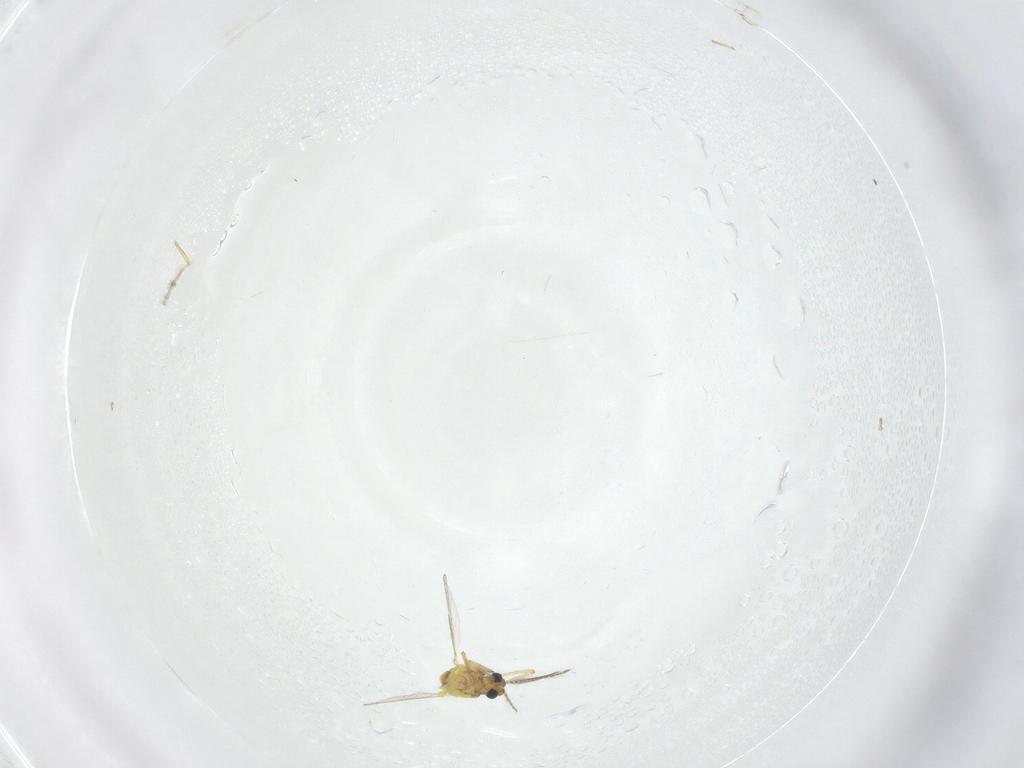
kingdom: Animalia
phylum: Arthropoda
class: Insecta
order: Diptera
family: Ceratopogonidae
